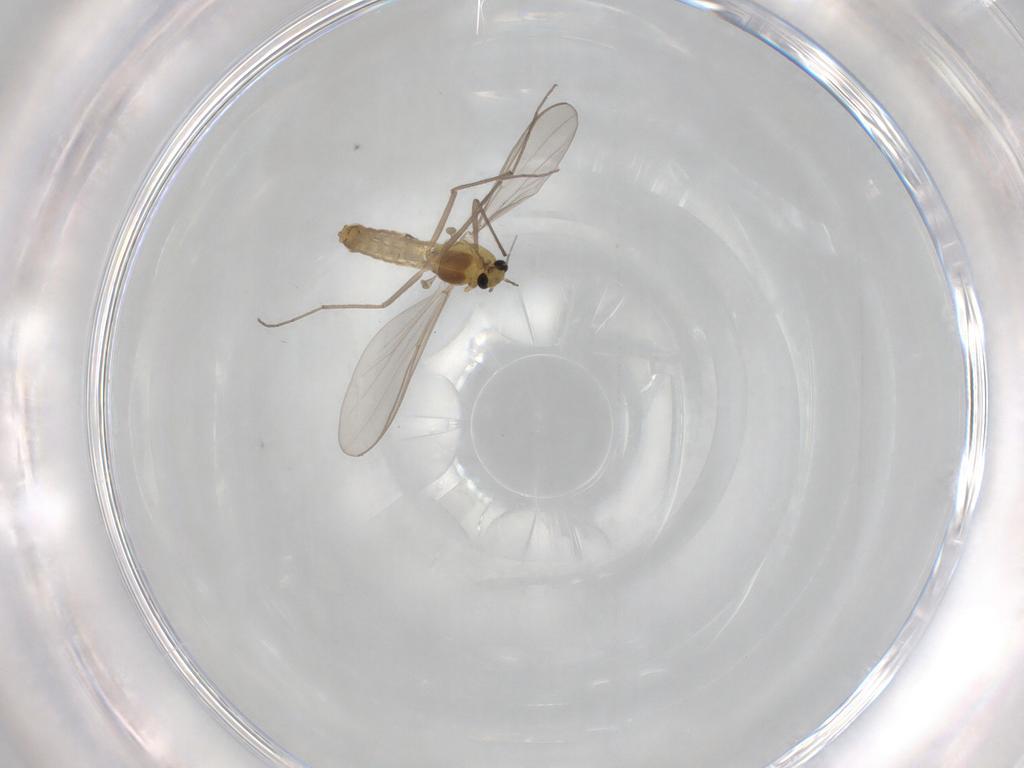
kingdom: Animalia
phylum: Arthropoda
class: Insecta
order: Diptera
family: Chironomidae
